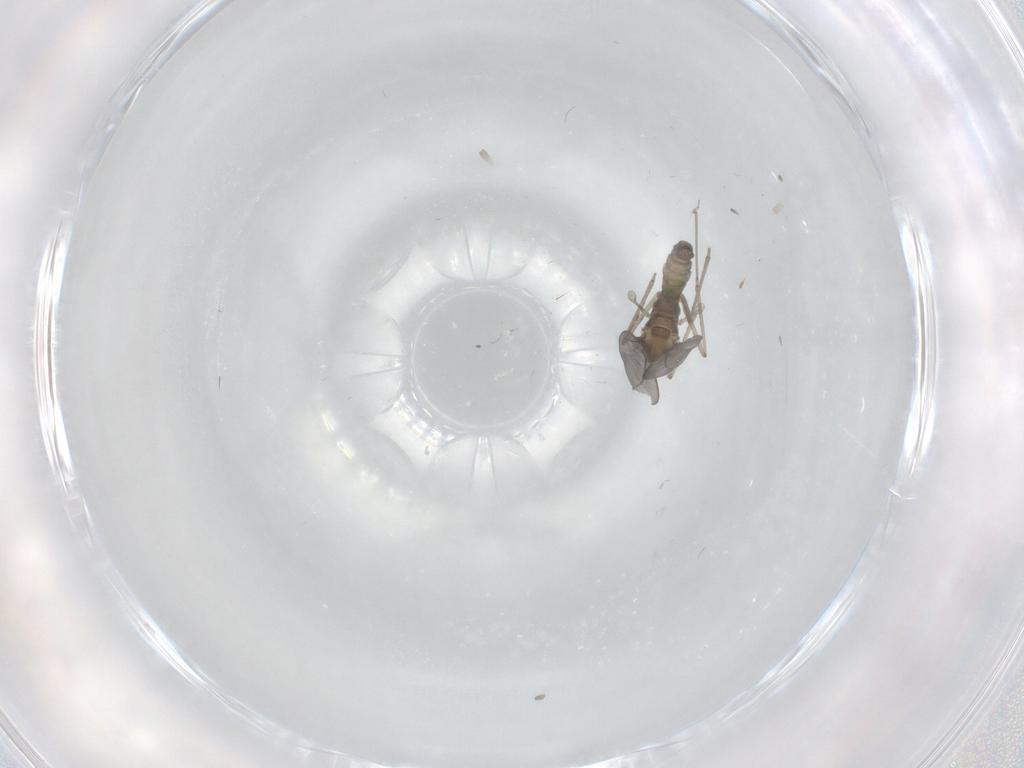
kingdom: Animalia
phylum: Arthropoda
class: Insecta
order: Diptera
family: Cecidomyiidae
